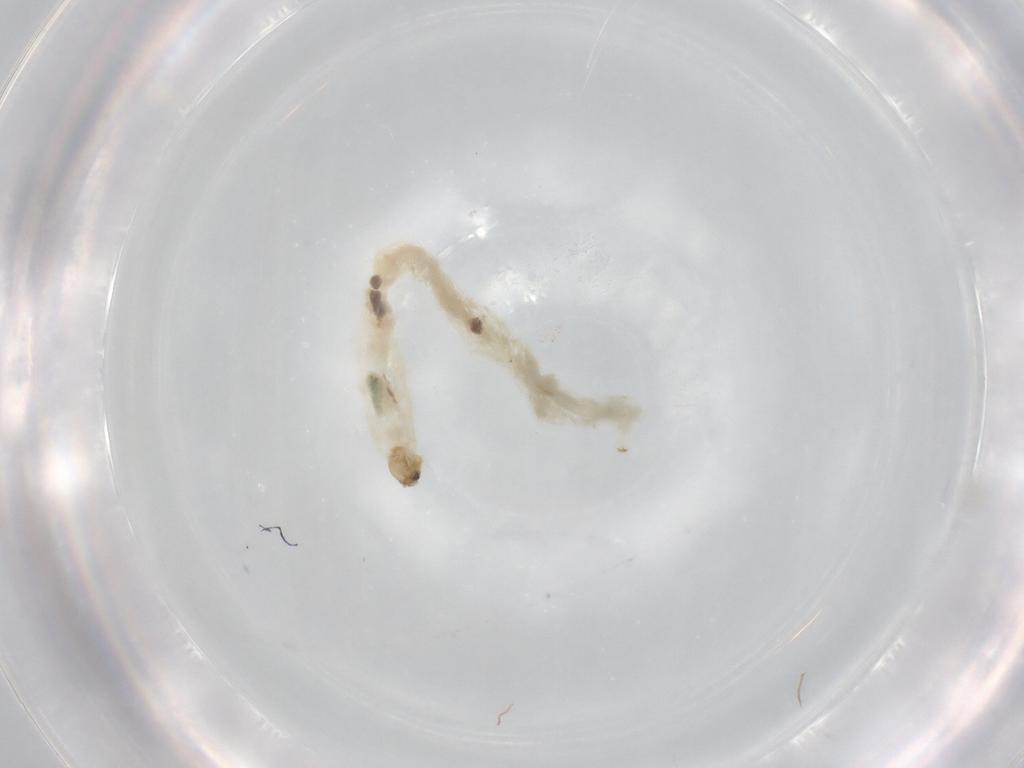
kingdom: Animalia
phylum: Arthropoda
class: Insecta
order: Diptera
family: Chironomidae
